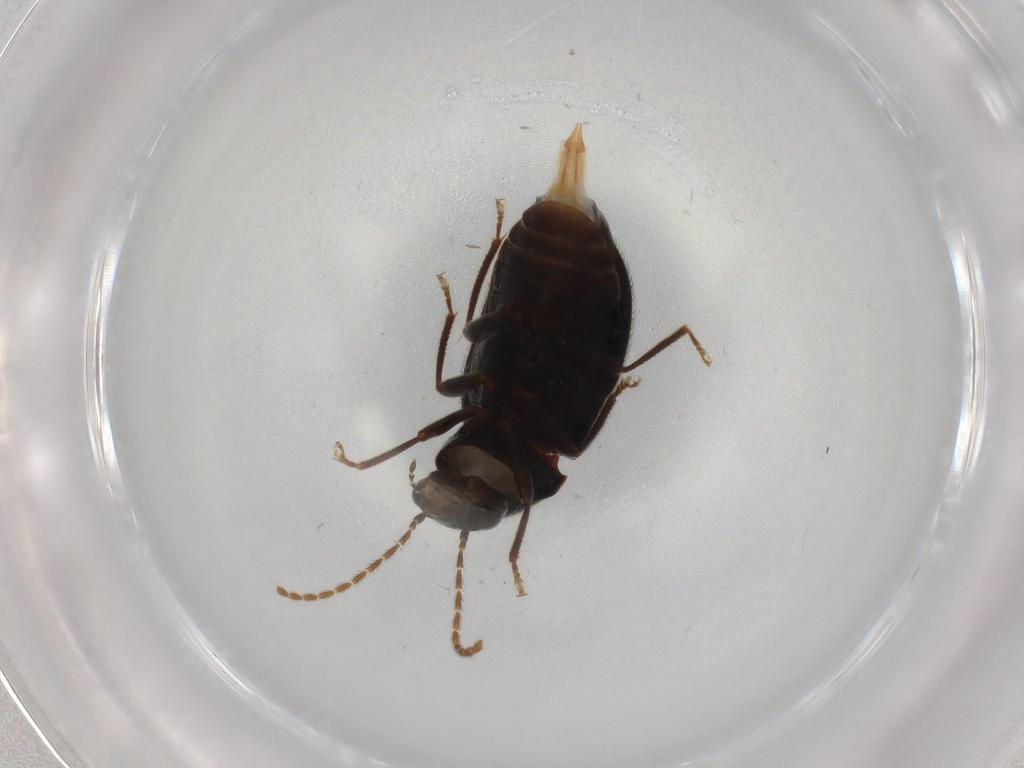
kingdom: Animalia
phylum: Arthropoda
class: Insecta
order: Coleoptera
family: Ptilodactylidae
